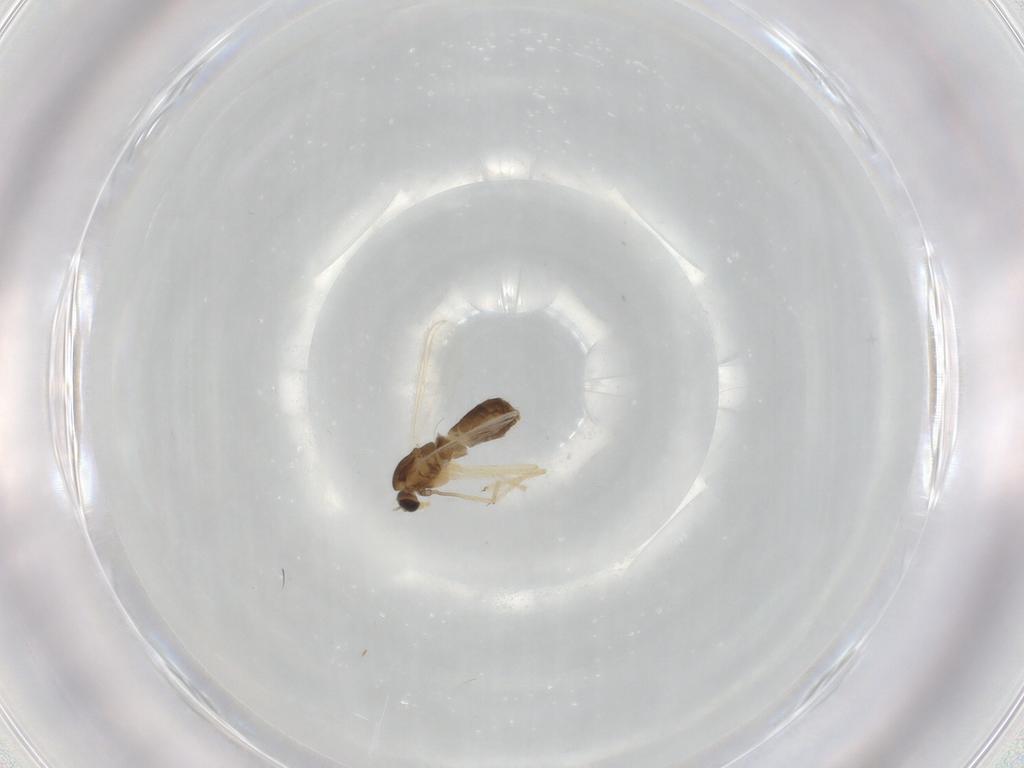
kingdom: Animalia
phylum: Arthropoda
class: Insecta
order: Diptera
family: Chironomidae
